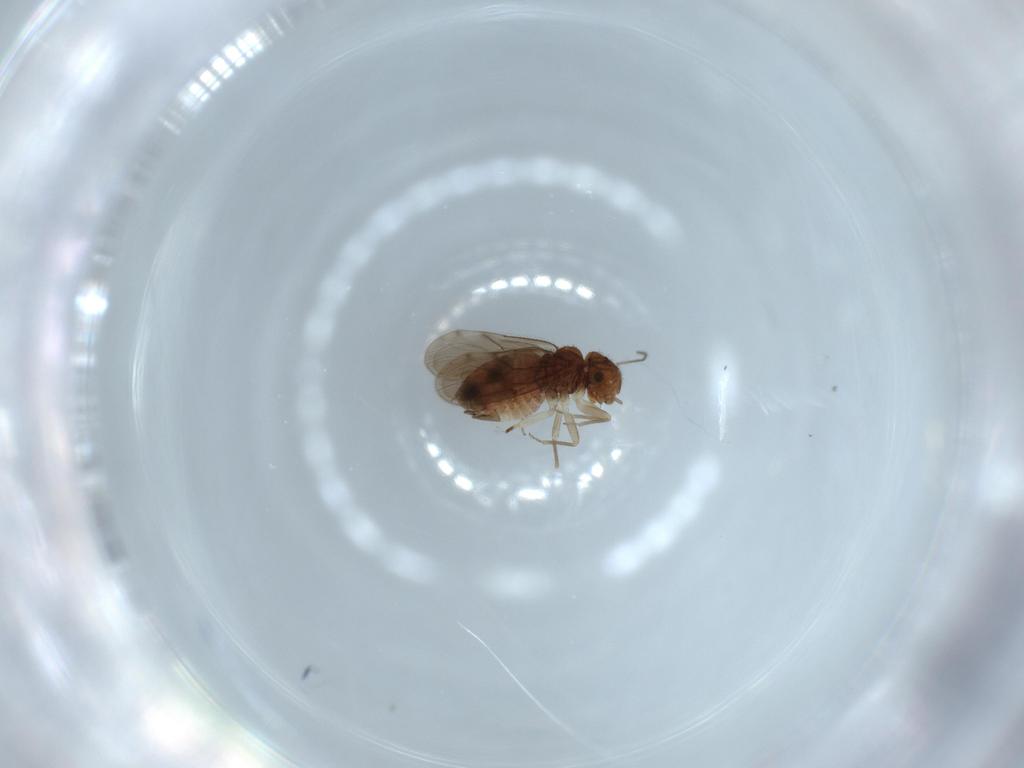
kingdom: Animalia
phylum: Arthropoda
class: Insecta
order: Psocodea
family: Ectopsocidae
